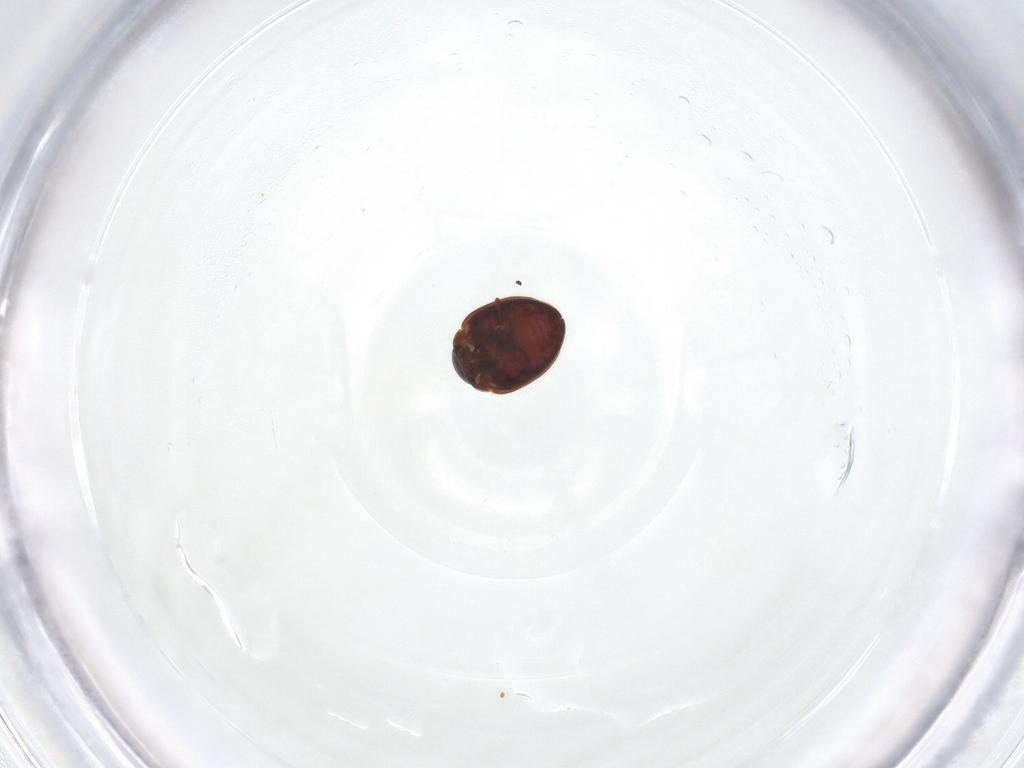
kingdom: Animalia
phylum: Arthropoda
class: Insecta
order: Coleoptera
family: Coccinellidae
